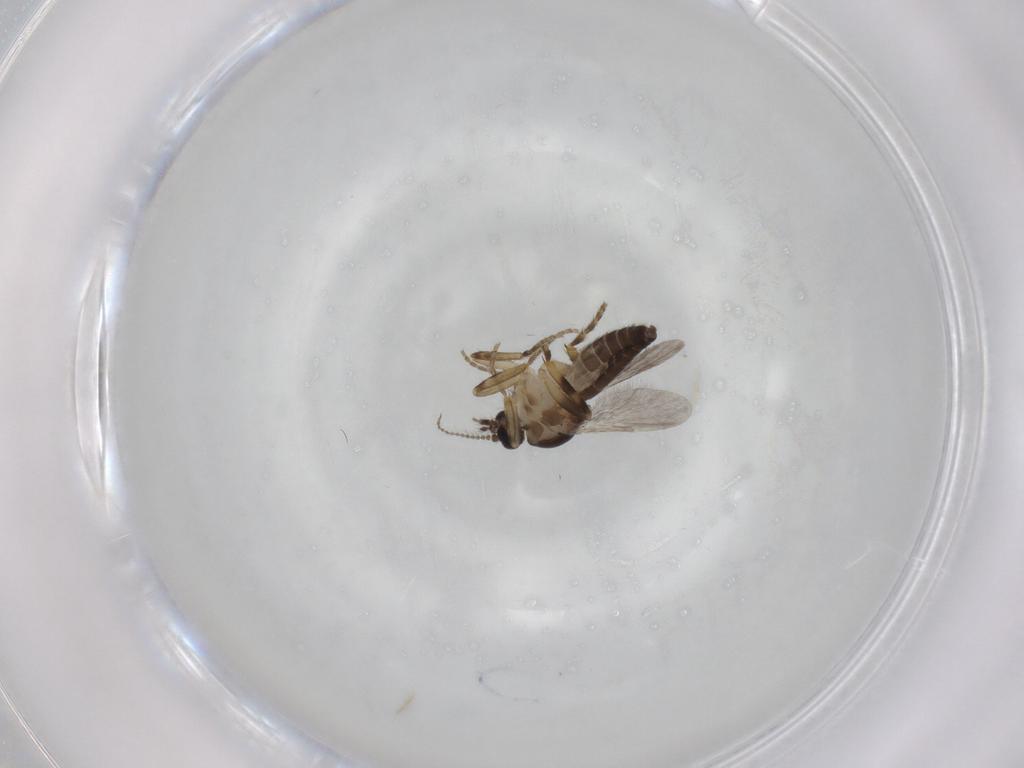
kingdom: Animalia
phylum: Arthropoda
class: Insecta
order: Diptera
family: Ceratopogonidae
